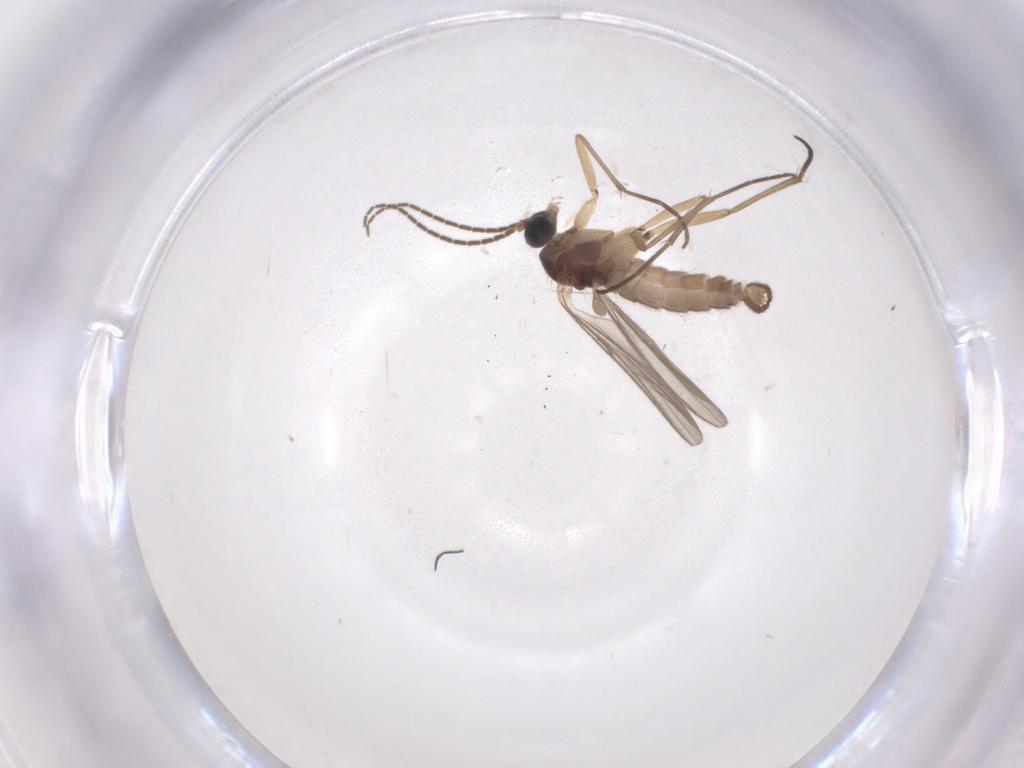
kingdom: Animalia
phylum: Arthropoda
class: Insecta
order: Diptera
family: Sciaridae
